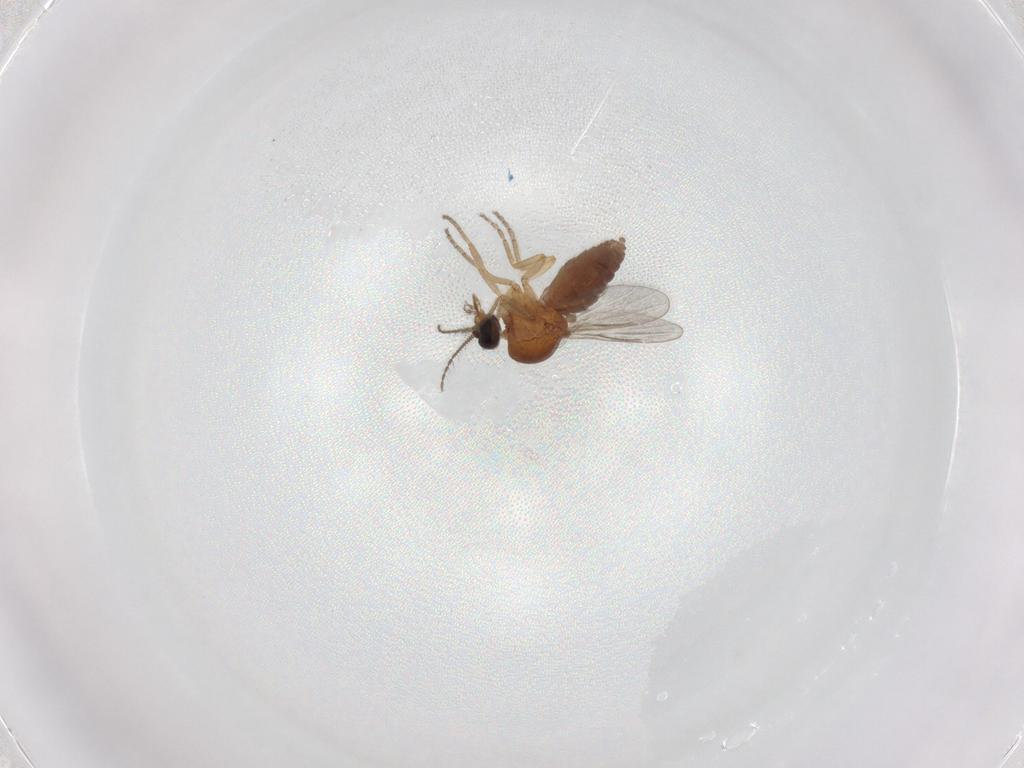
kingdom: Animalia
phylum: Arthropoda
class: Insecta
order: Diptera
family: Ceratopogonidae
